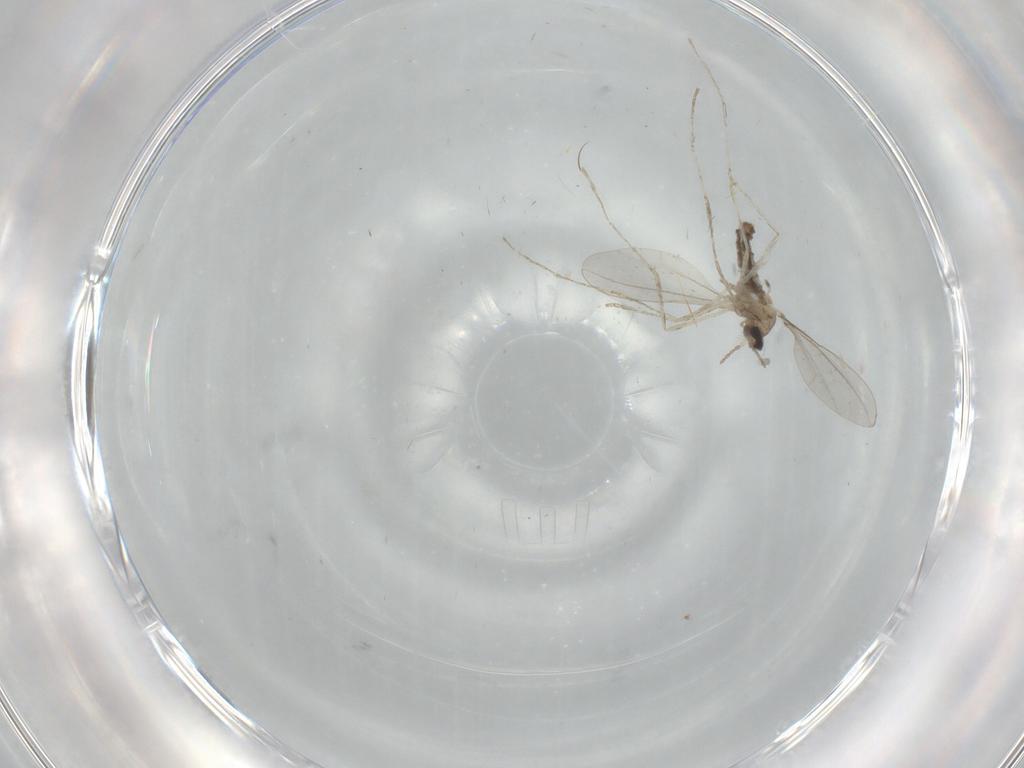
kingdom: Animalia
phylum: Arthropoda
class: Insecta
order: Diptera
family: Cecidomyiidae
